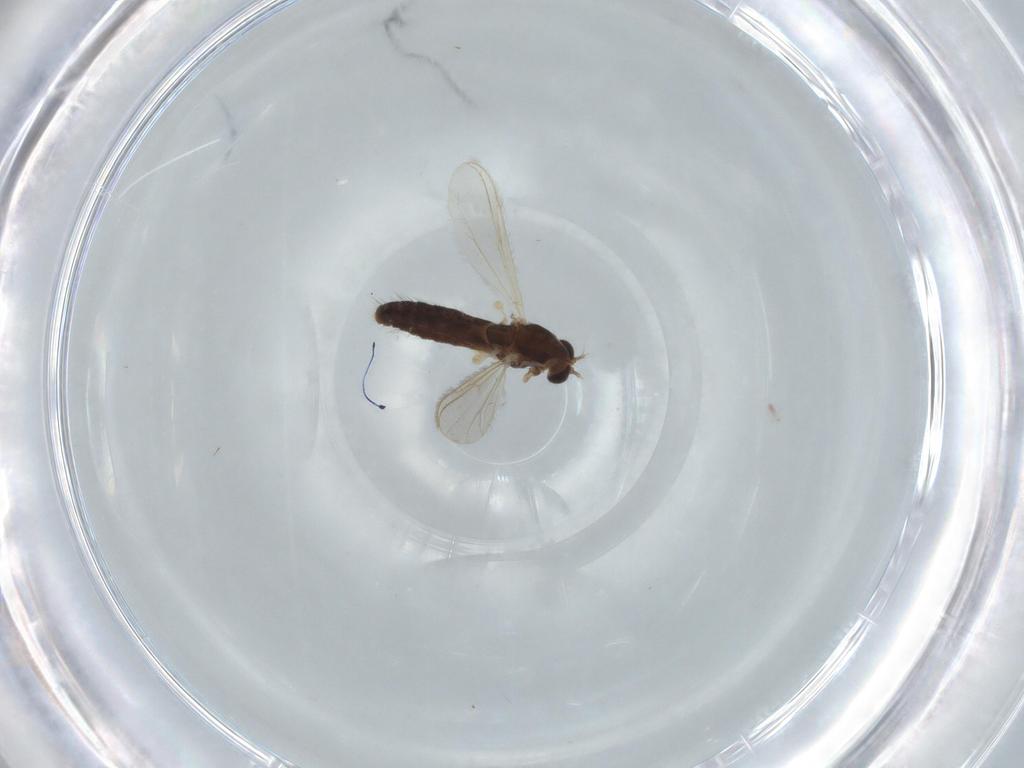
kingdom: Animalia
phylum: Arthropoda
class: Insecta
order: Diptera
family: Chironomidae
